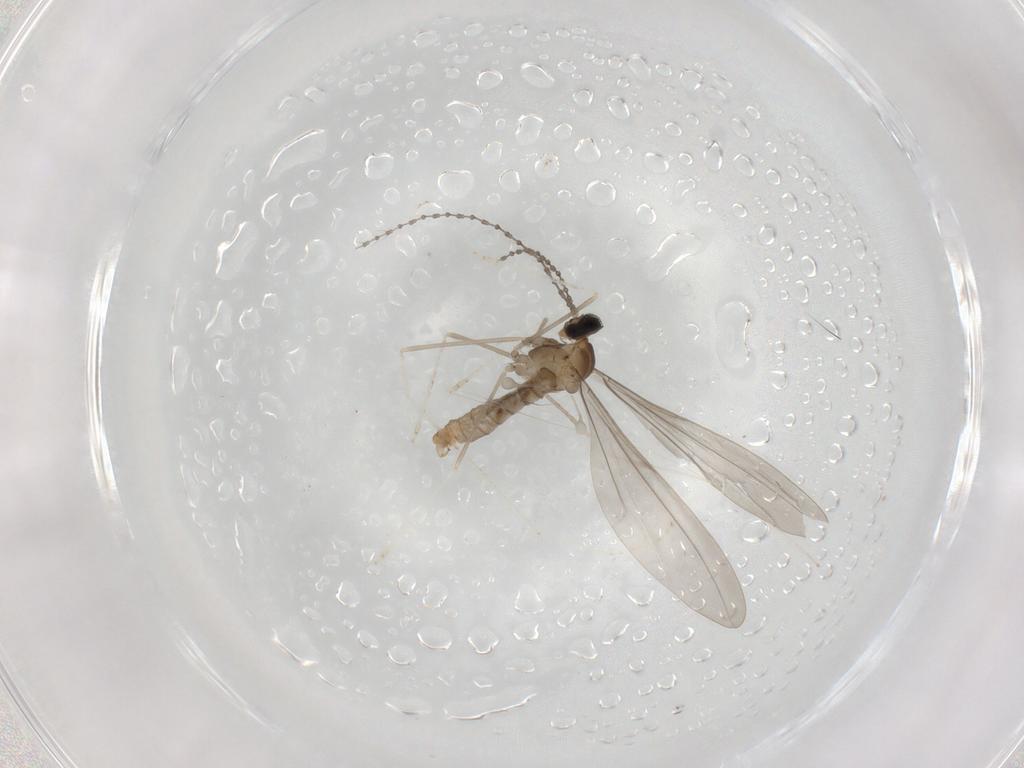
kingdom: Animalia
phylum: Arthropoda
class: Insecta
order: Diptera
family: Cecidomyiidae
